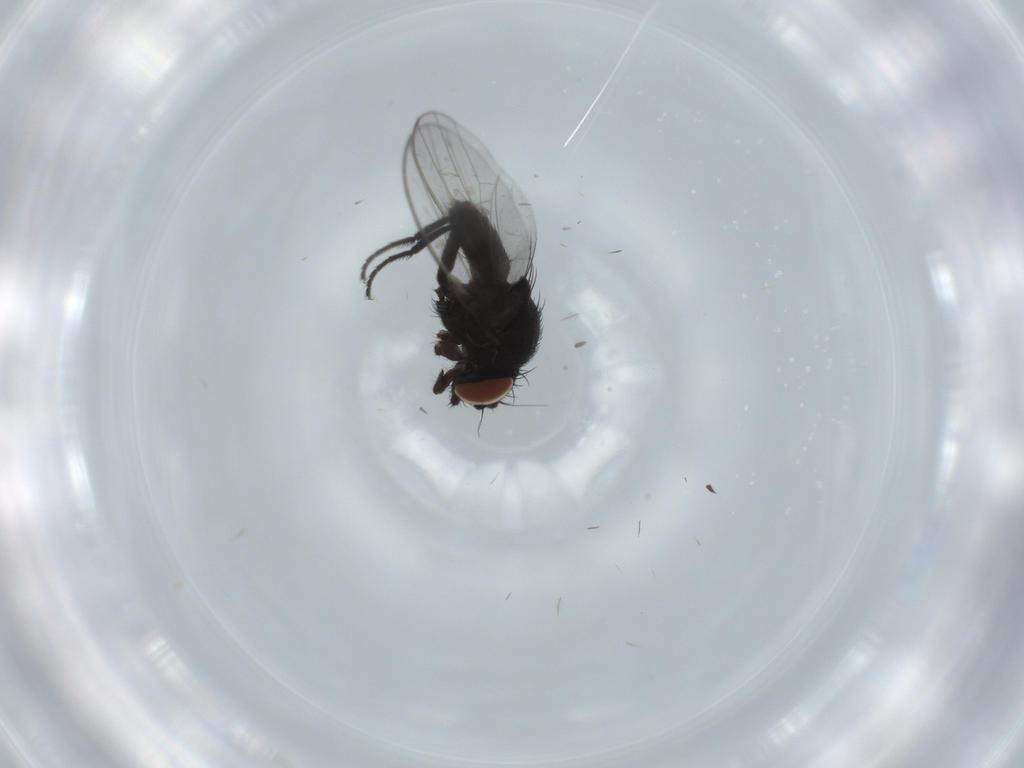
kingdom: Animalia
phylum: Arthropoda
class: Insecta
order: Diptera
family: Milichiidae
